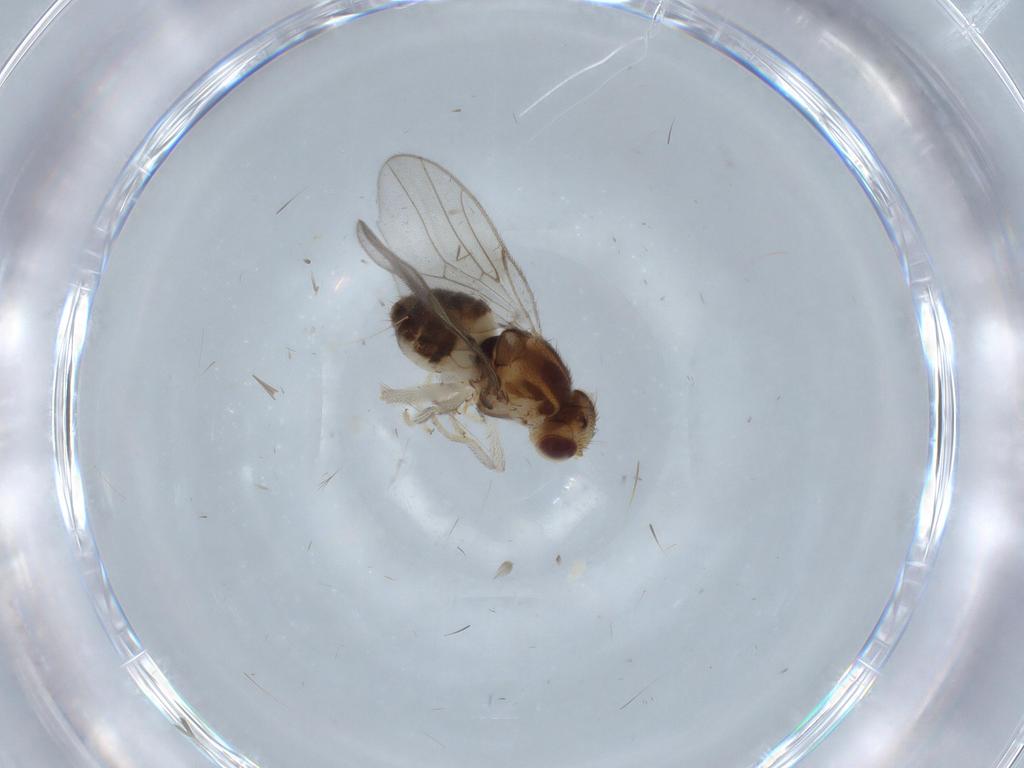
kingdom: Animalia
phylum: Arthropoda
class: Insecta
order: Diptera
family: Chloropidae
